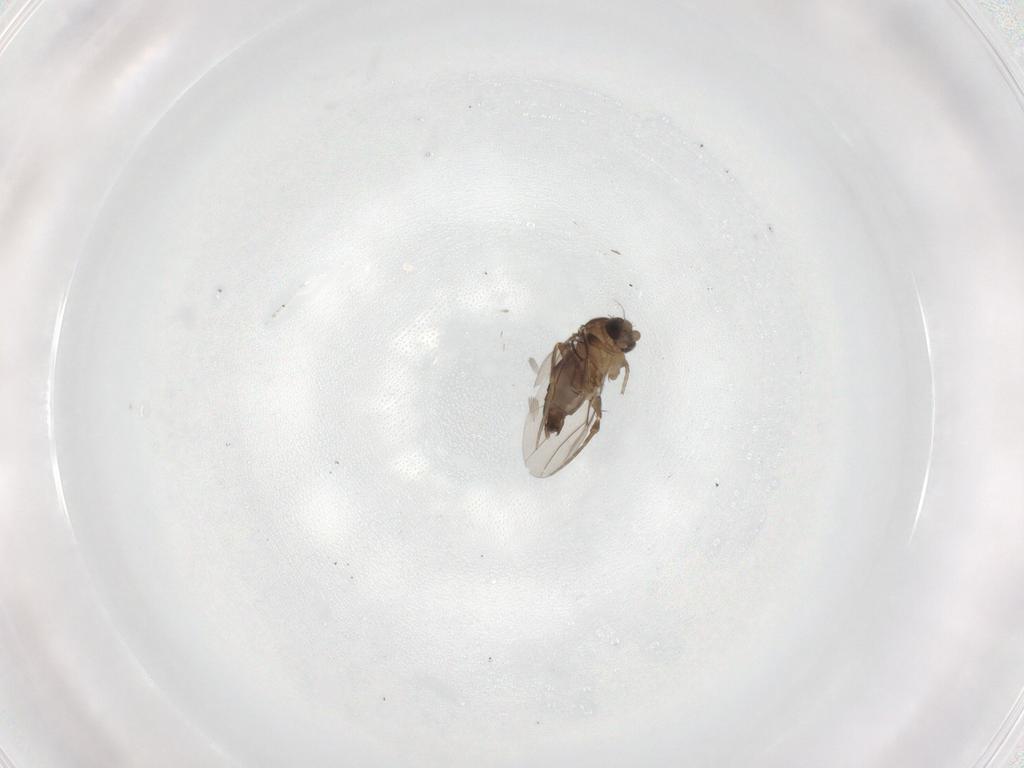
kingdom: Animalia
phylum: Arthropoda
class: Insecta
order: Diptera
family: Phoridae
